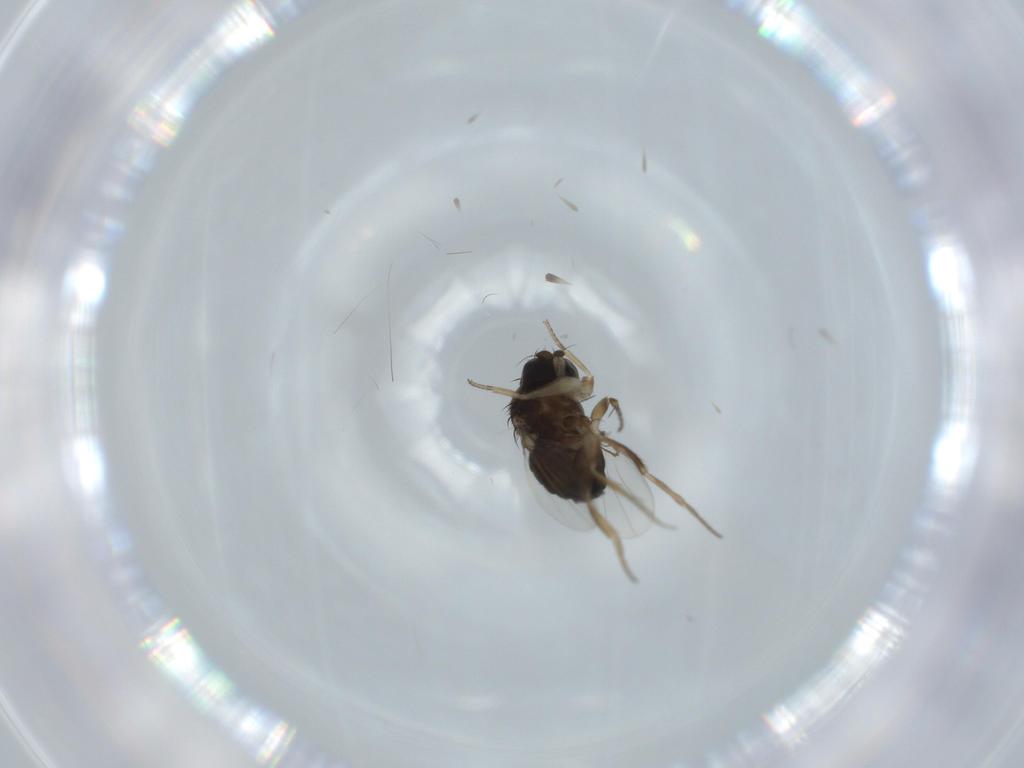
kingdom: Animalia
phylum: Arthropoda
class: Insecta
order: Diptera
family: Phoridae
